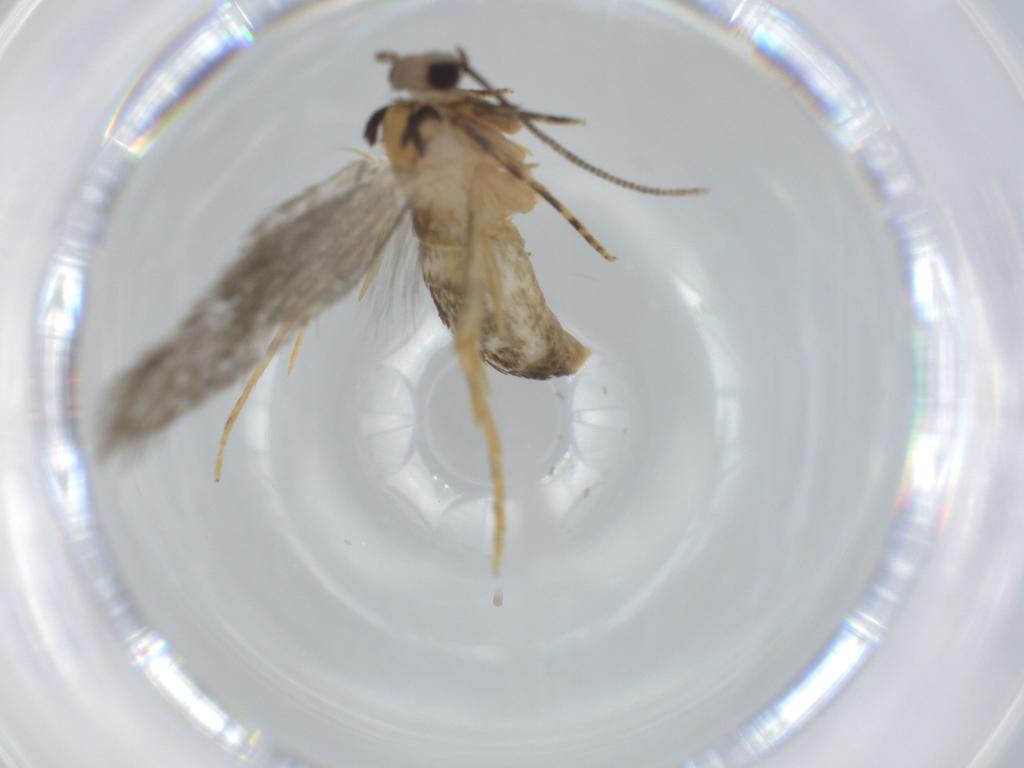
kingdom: Animalia
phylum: Arthropoda
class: Insecta
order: Lepidoptera
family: Tineidae
